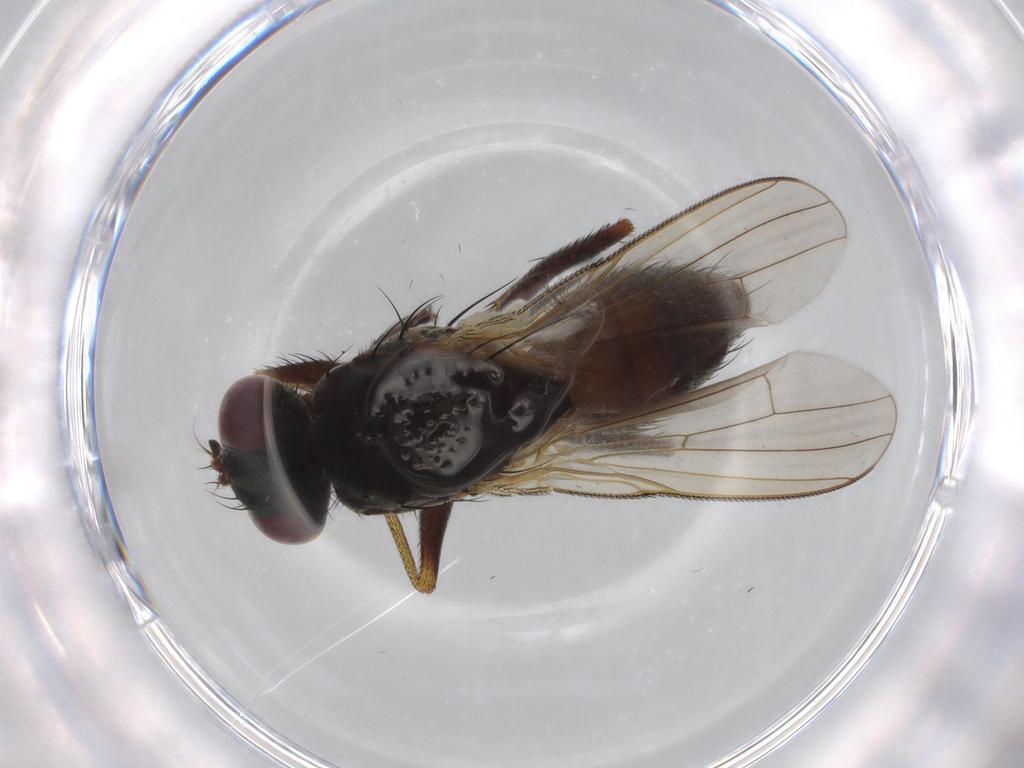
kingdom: Animalia
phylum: Arthropoda
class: Insecta
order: Diptera
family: Muscidae
